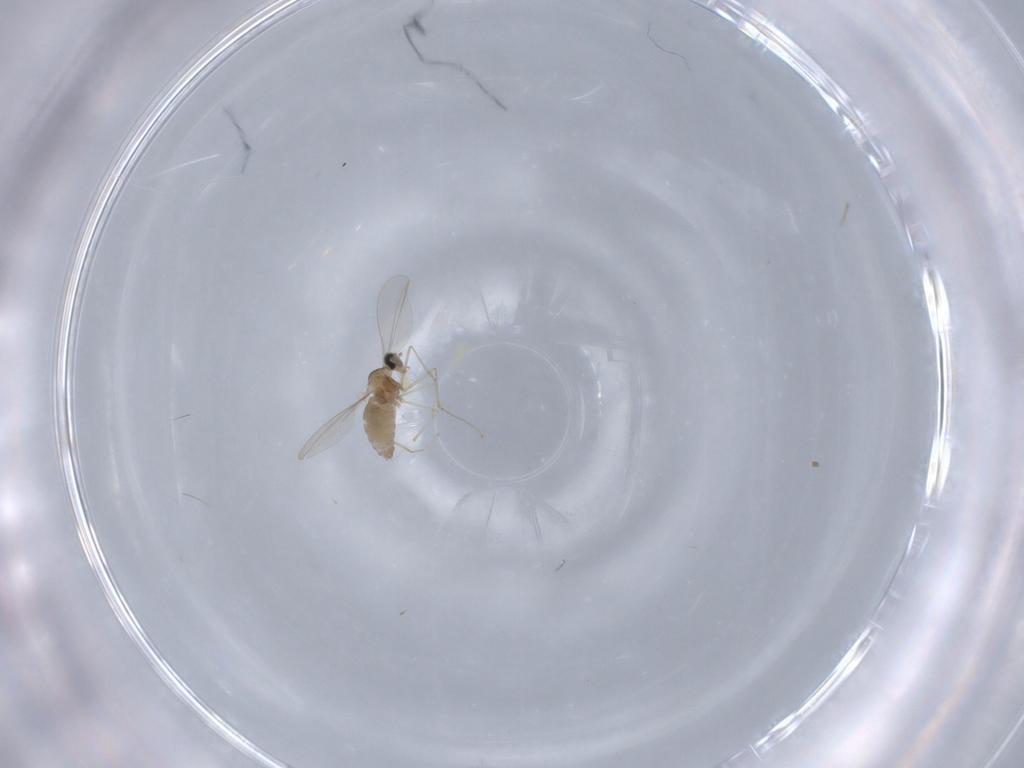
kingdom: Animalia
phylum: Arthropoda
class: Insecta
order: Diptera
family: Cecidomyiidae
